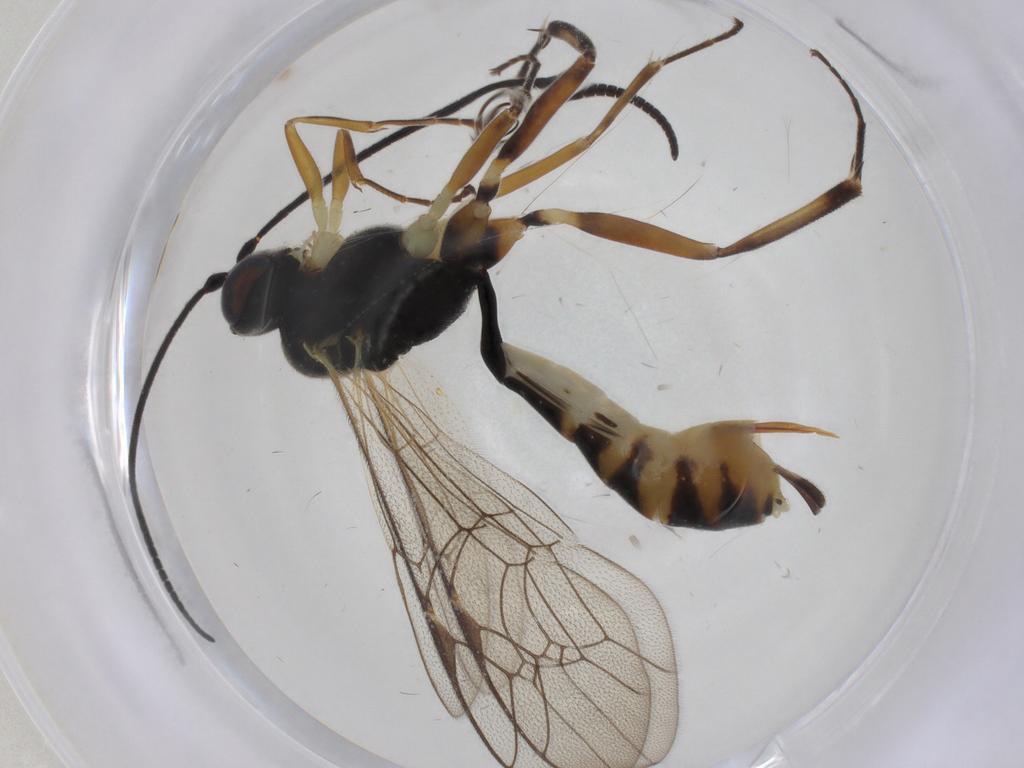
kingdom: Animalia
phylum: Arthropoda
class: Insecta
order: Hymenoptera
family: Ichneumonidae
